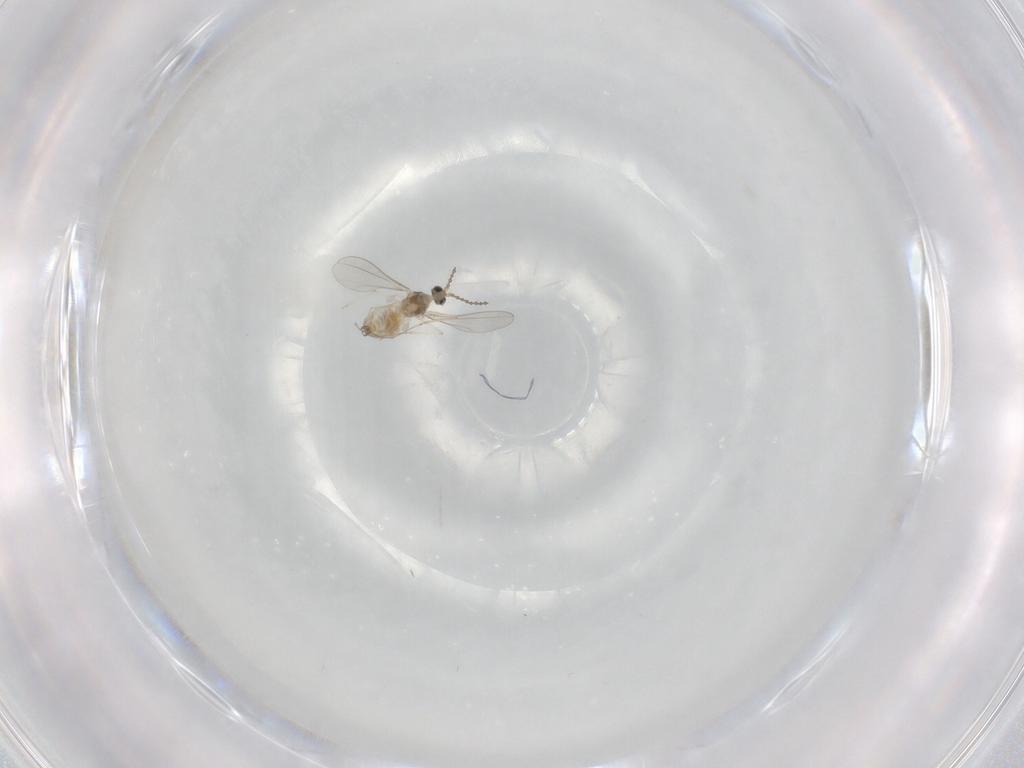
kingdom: Animalia
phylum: Arthropoda
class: Insecta
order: Diptera
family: Cecidomyiidae
